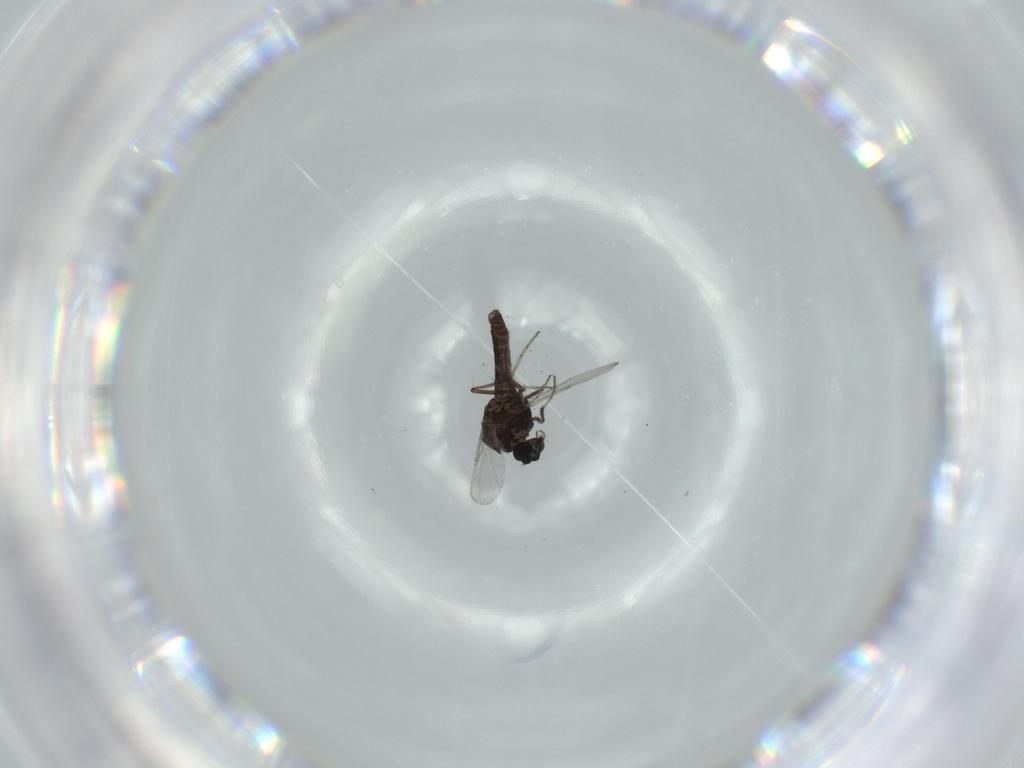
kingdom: Animalia
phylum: Arthropoda
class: Insecta
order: Diptera
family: Ceratopogonidae
